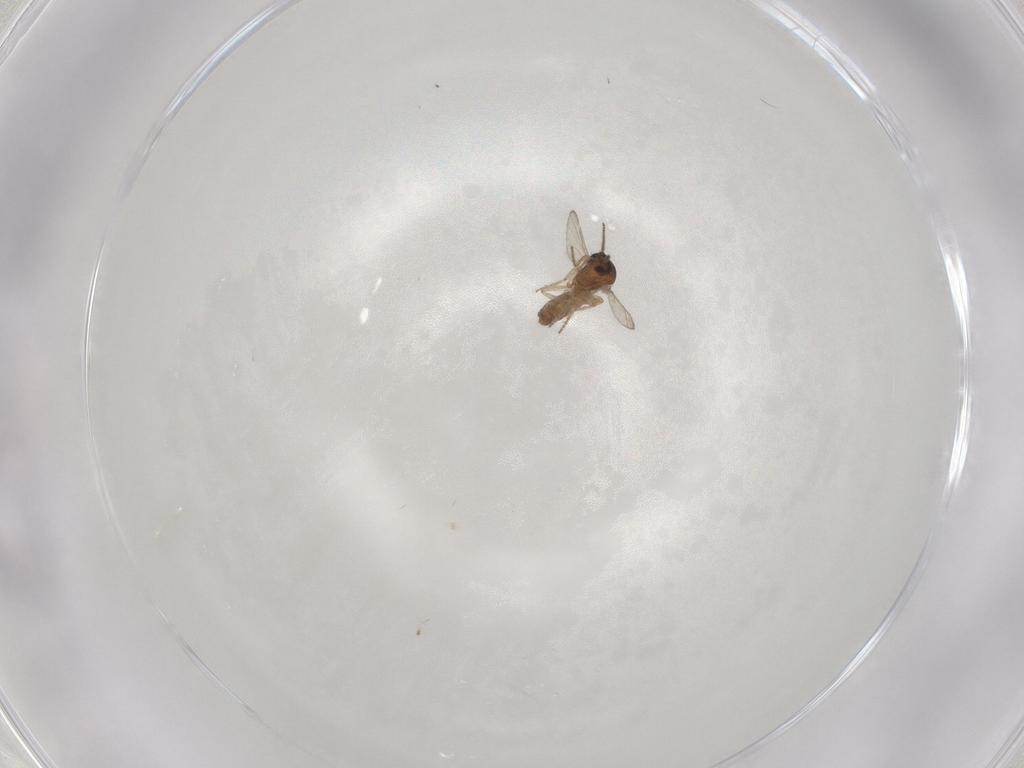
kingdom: Animalia
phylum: Arthropoda
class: Insecta
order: Diptera
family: Ceratopogonidae
